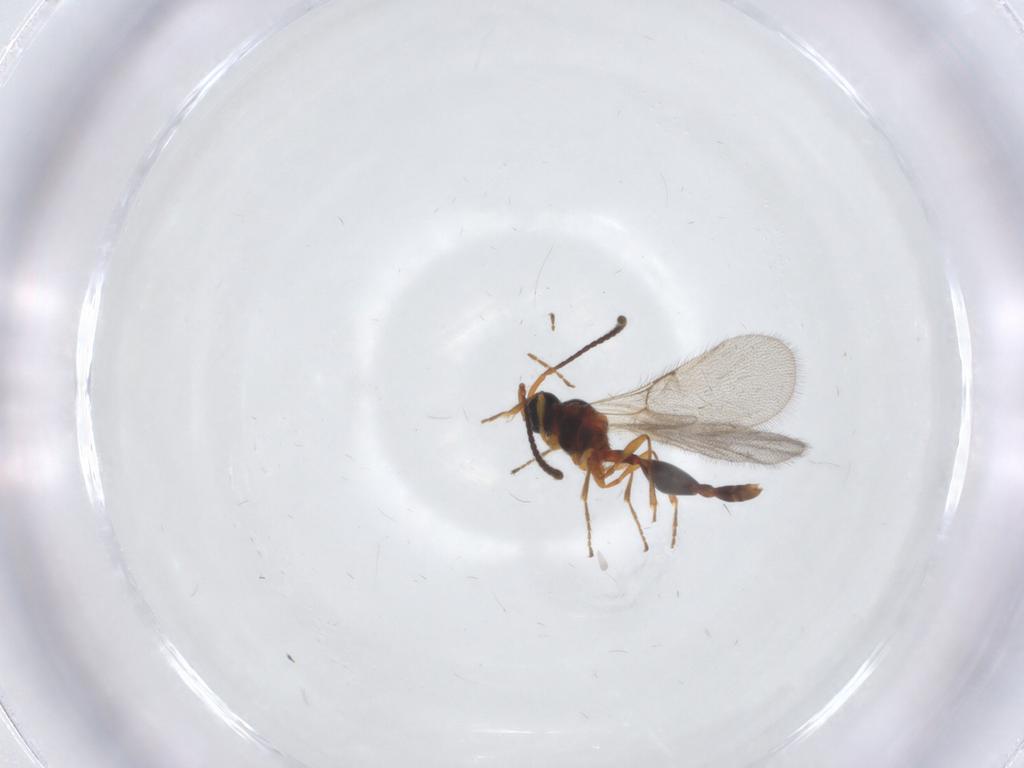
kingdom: Animalia
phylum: Arthropoda
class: Insecta
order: Hymenoptera
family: Diapriidae
